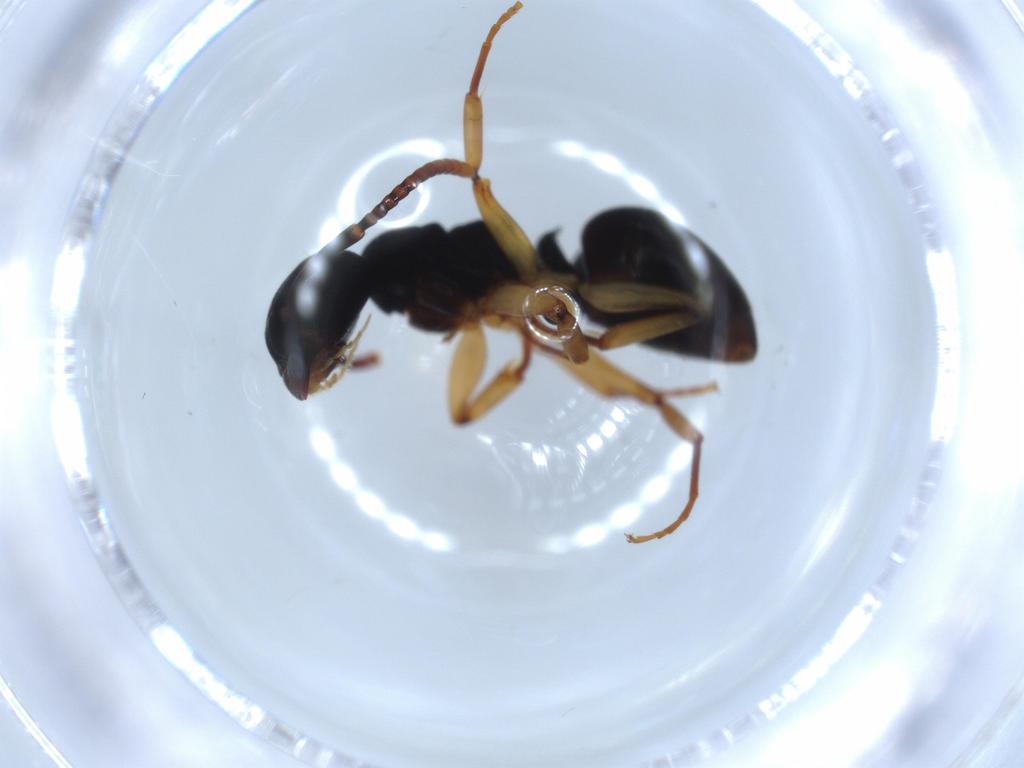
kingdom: Animalia
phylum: Arthropoda
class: Insecta
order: Hymenoptera
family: Formicidae
